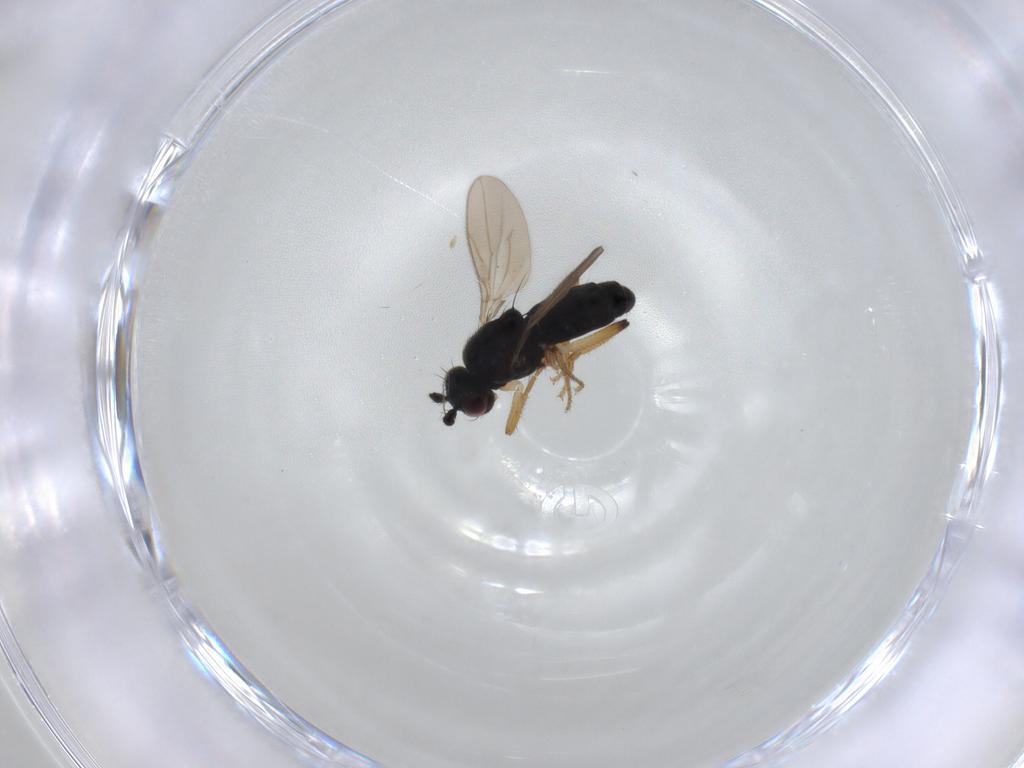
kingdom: Animalia
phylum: Arthropoda
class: Insecta
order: Diptera
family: Sphaeroceridae
